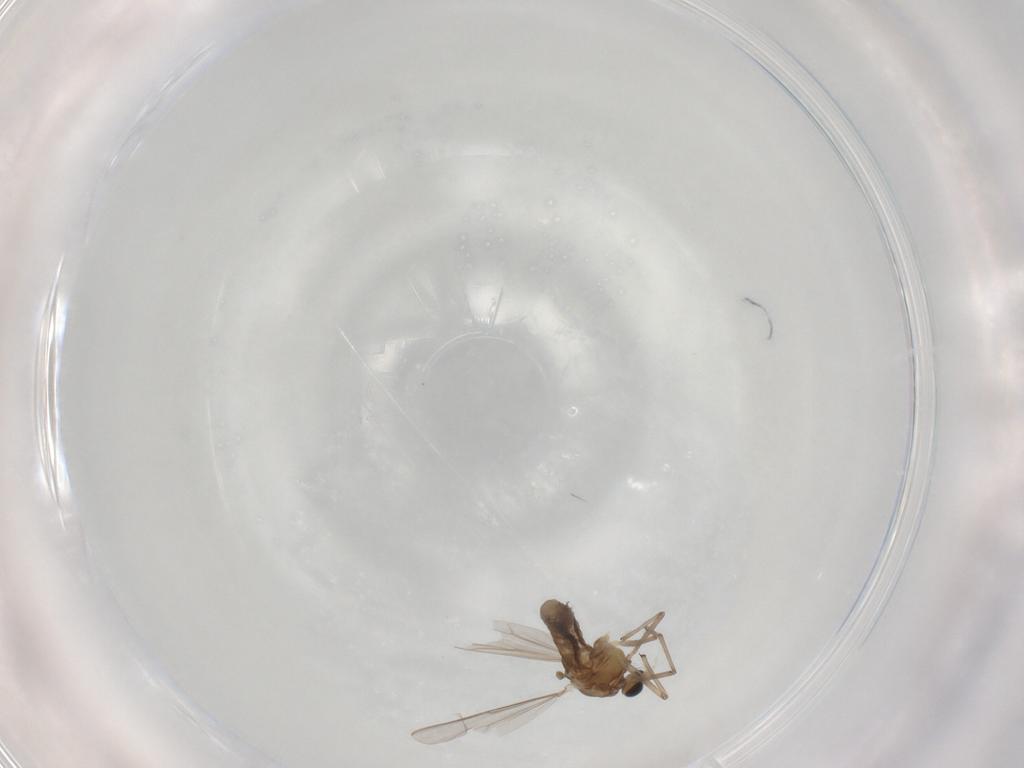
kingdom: Animalia
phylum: Arthropoda
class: Insecta
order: Diptera
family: Chironomidae
